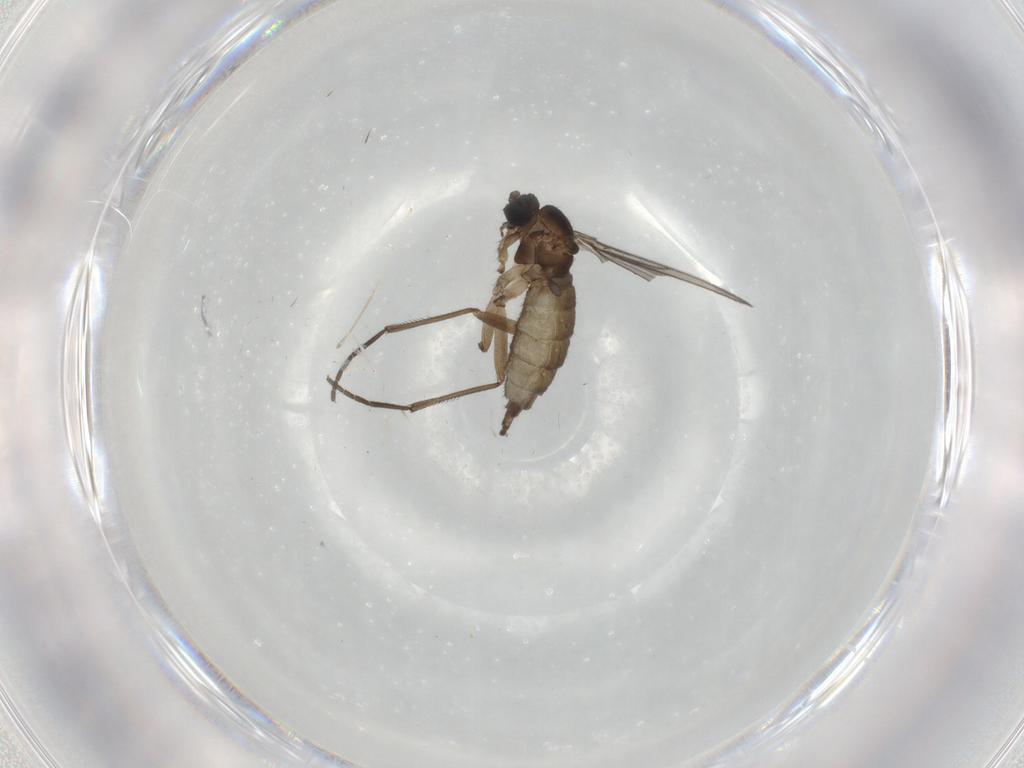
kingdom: Animalia
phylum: Arthropoda
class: Insecta
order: Diptera
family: Sciaridae
